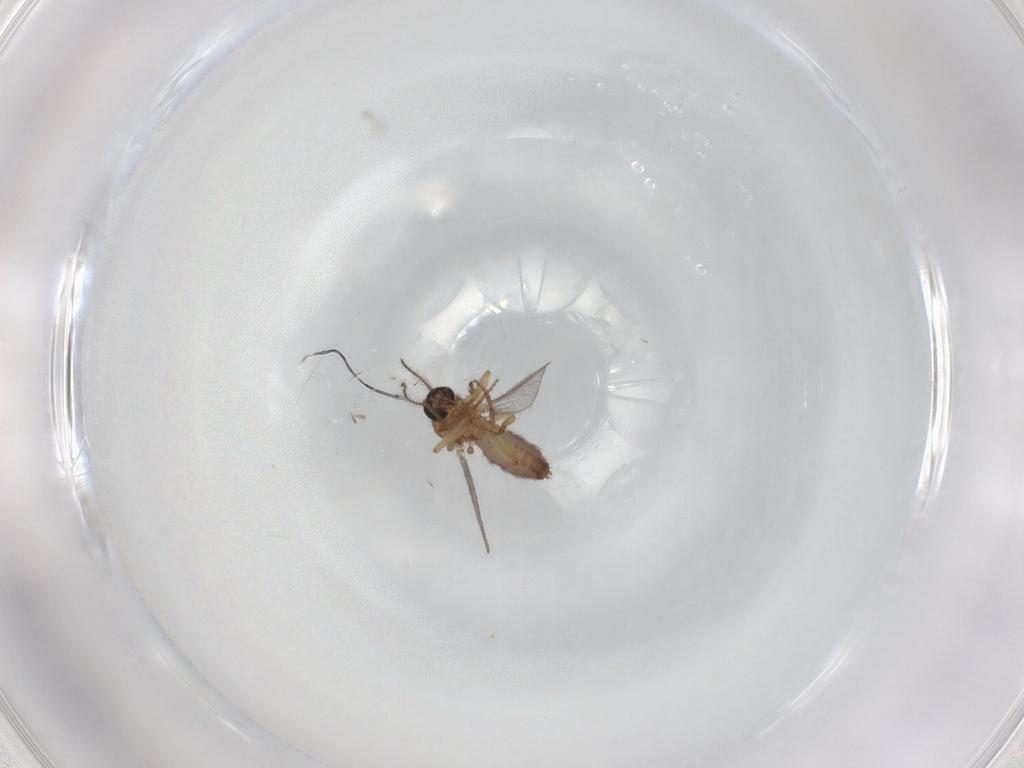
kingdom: Animalia
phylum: Arthropoda
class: Insecta
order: Diptera
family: Ceratopogonidae
